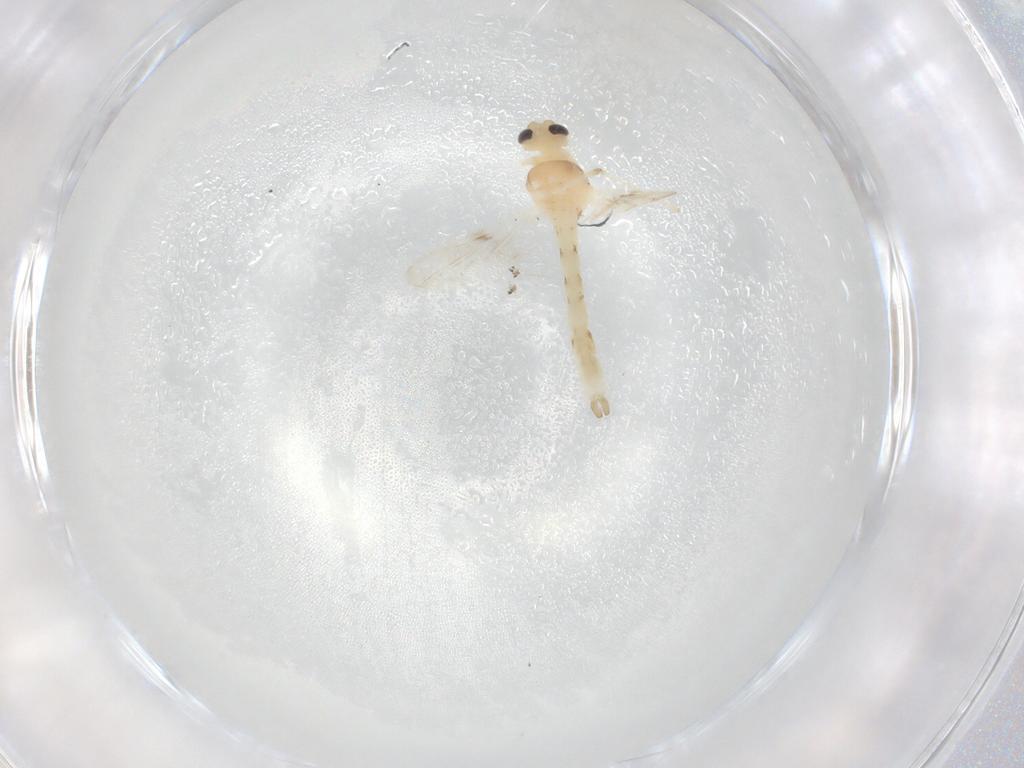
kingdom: Animalia
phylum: Arthropoda
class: Insecta
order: Diptera
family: Chironomidae
